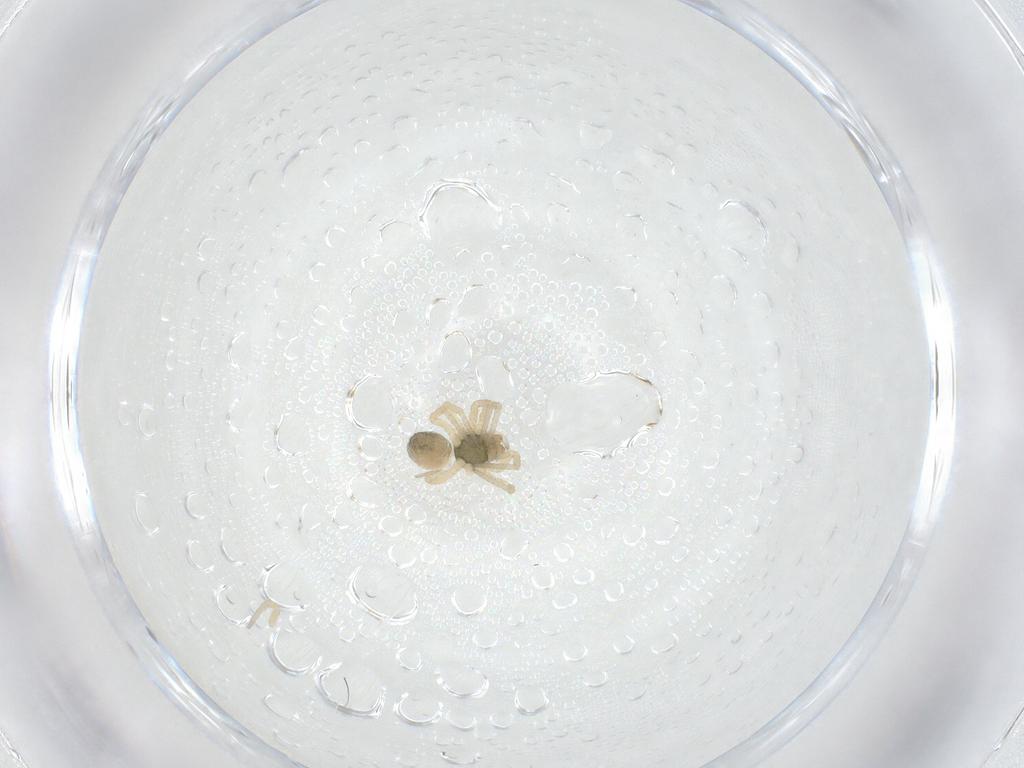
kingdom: Animalia
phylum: Arthropoda
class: Arachnida
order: Araneae
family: Linyphiidae
